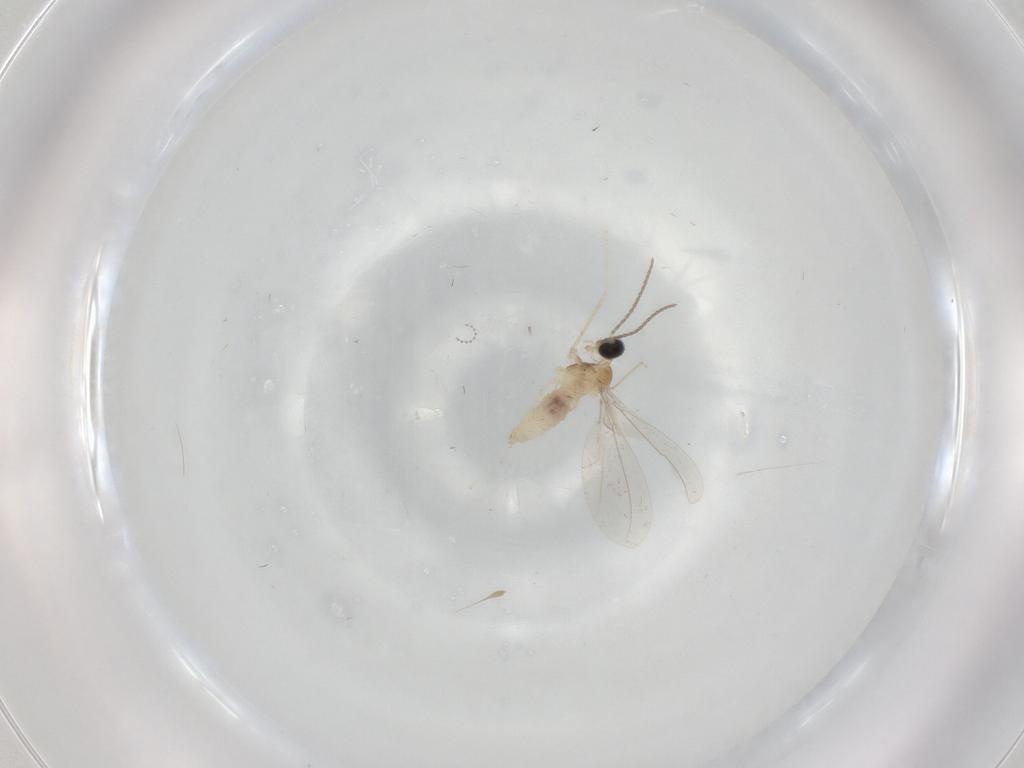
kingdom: Animalia
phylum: Arthropoda
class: Insecta
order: Diptera
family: Cecidomyiidae
